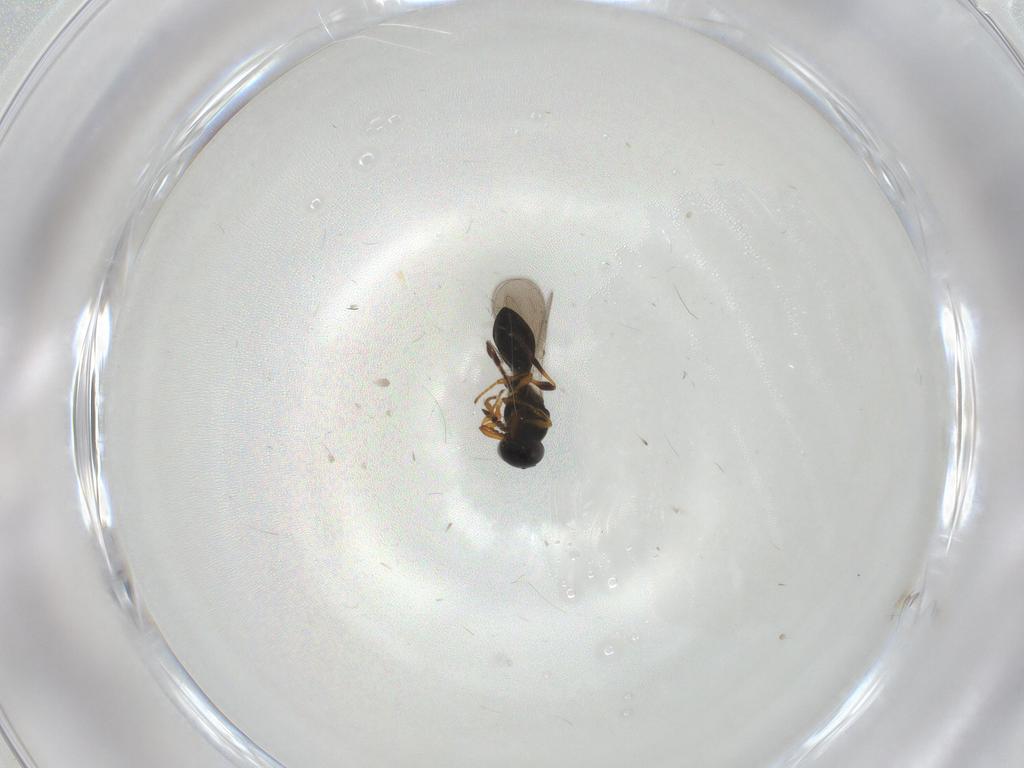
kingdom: Animalia
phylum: Arthropoda
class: Insecta
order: Hymenoptera
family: Platygastridae
